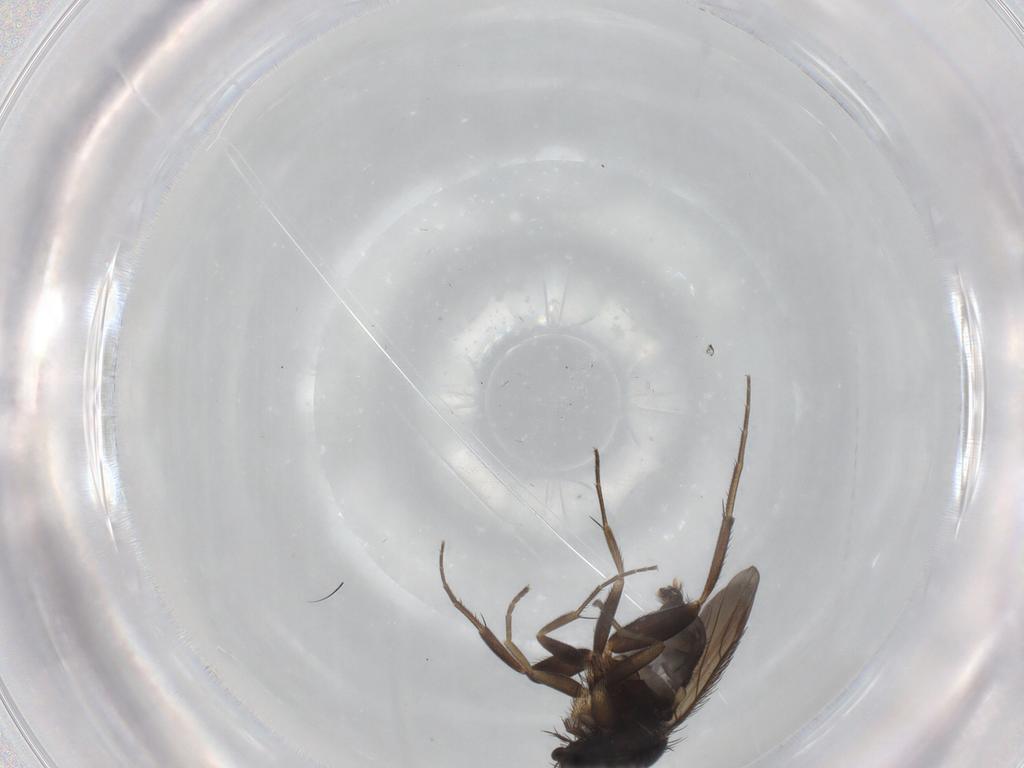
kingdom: Animalia
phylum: Arthropoda
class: Insecta
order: Diptera
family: Phoridae
